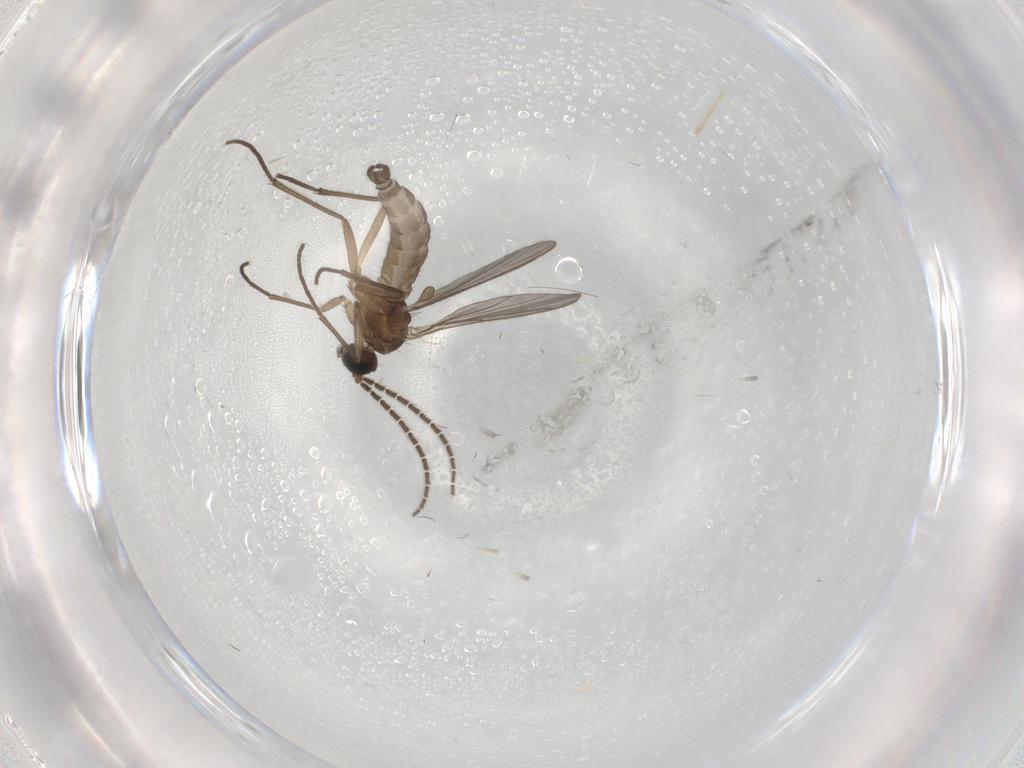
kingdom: Animalia
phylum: Arthropoda
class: Insecta
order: Diptera
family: Sciaridae
